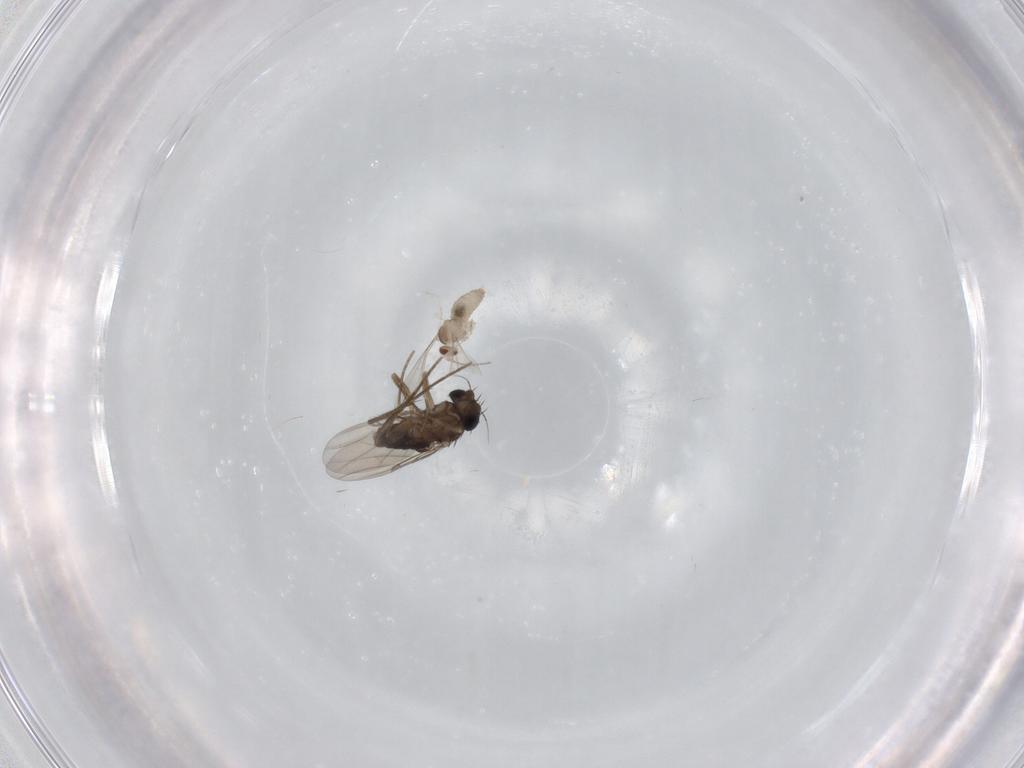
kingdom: Animalia
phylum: Arthropoda
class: Insecta
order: Diptera
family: Phoridae
